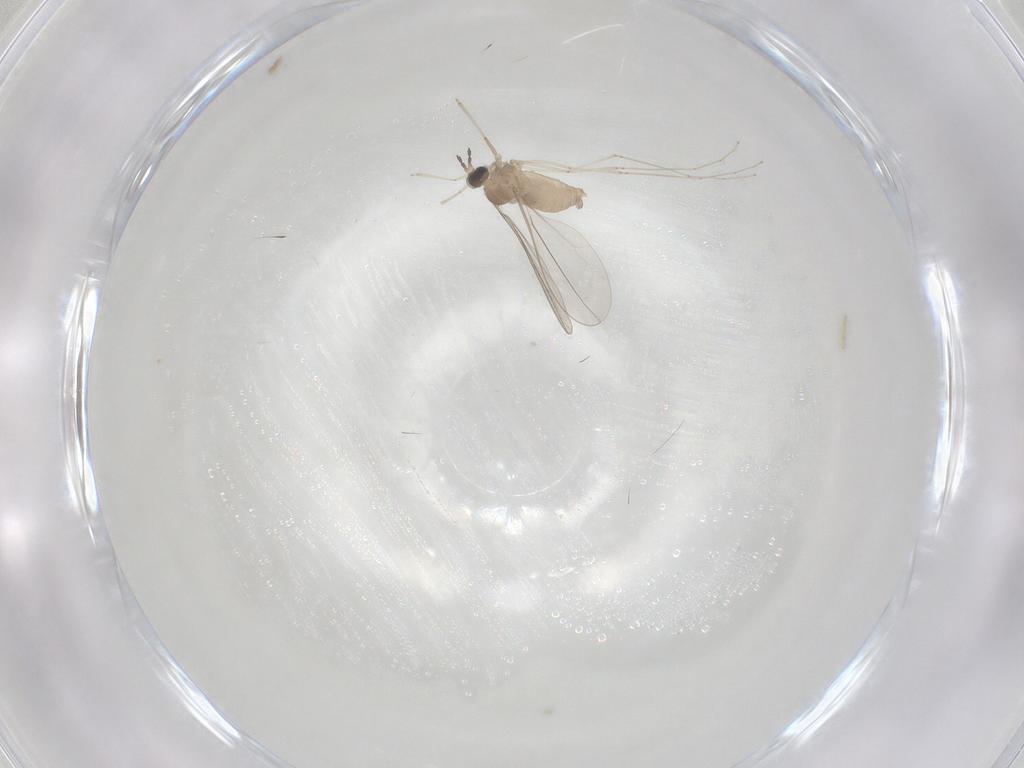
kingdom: Animalia
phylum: Arthropoda
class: Insecta
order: Diptera
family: Cecidomyiidae
